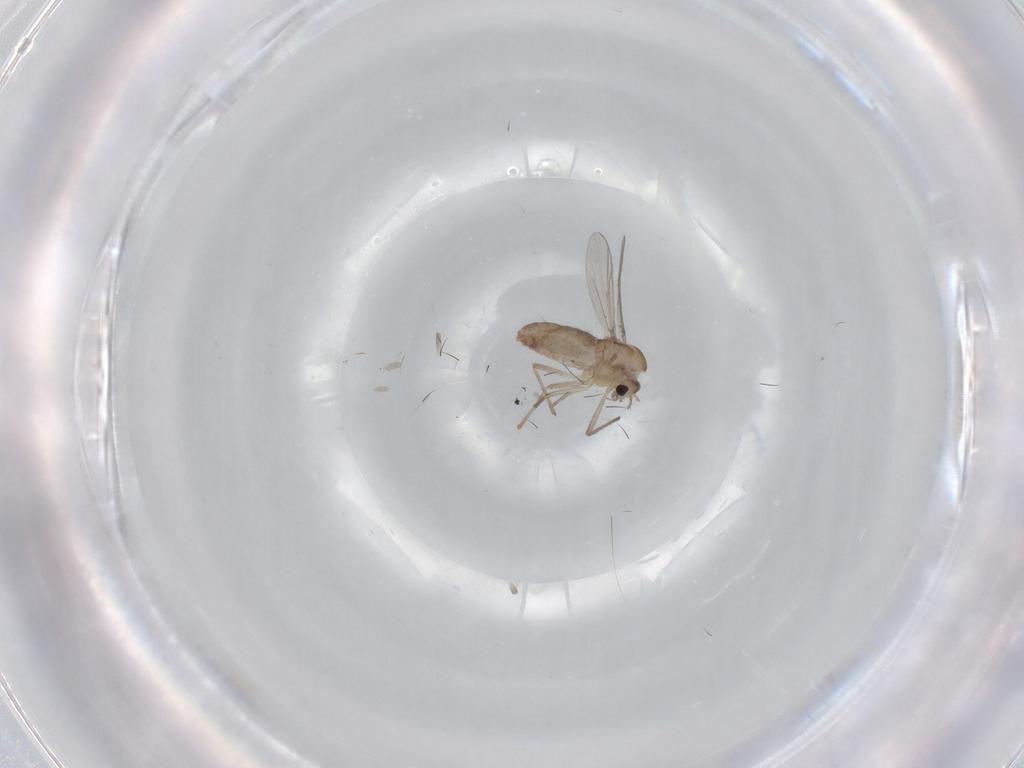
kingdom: Animalia
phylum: Arthropoda
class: Insecta
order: Diptera
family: Chironomidae
